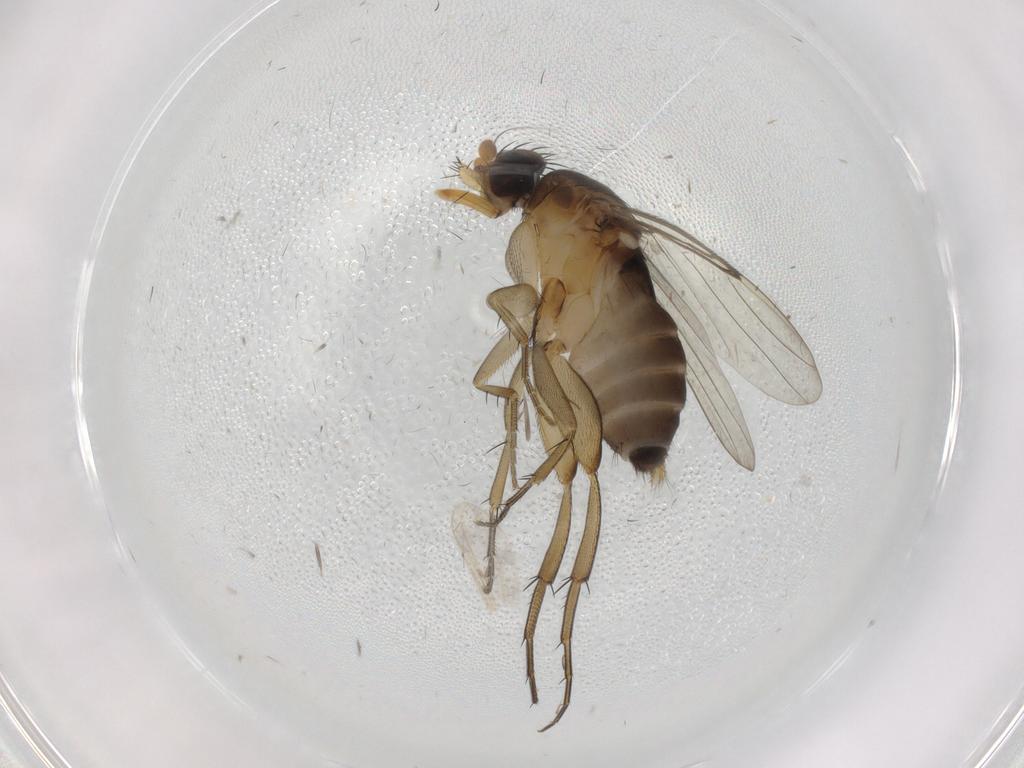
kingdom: Animalia
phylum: Arthropoda
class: Insecta
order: Diptera
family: Phoridae
